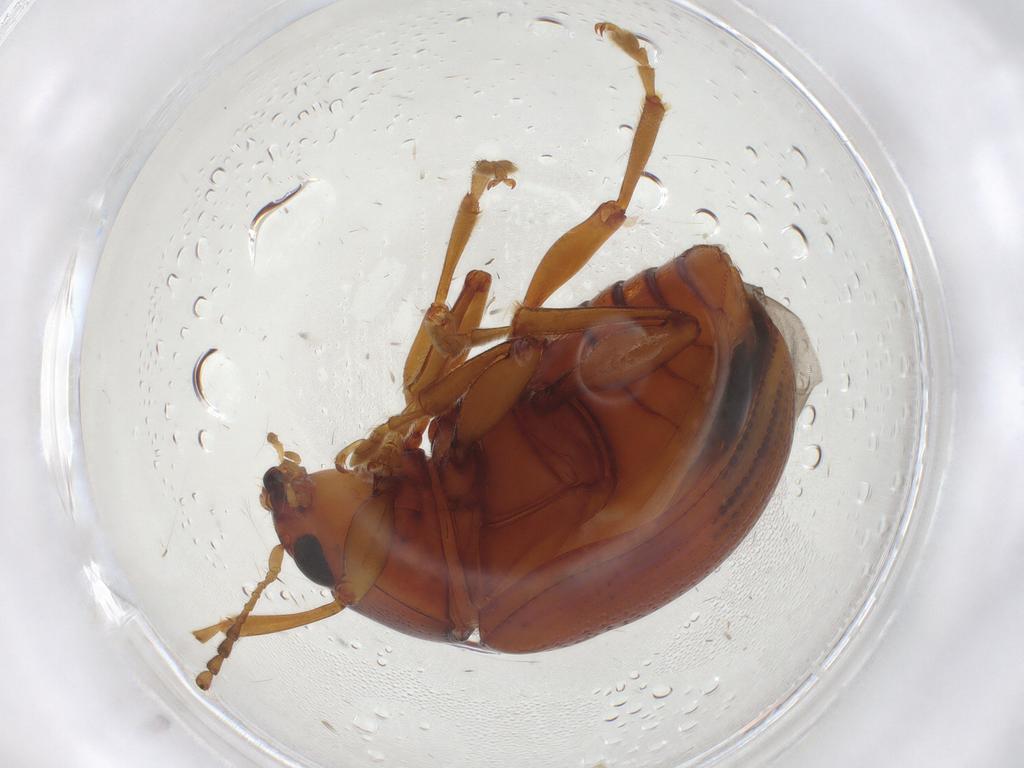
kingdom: Animalia
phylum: Arthropoda
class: Insecta
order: Coleoptera
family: Chrysomelidae
